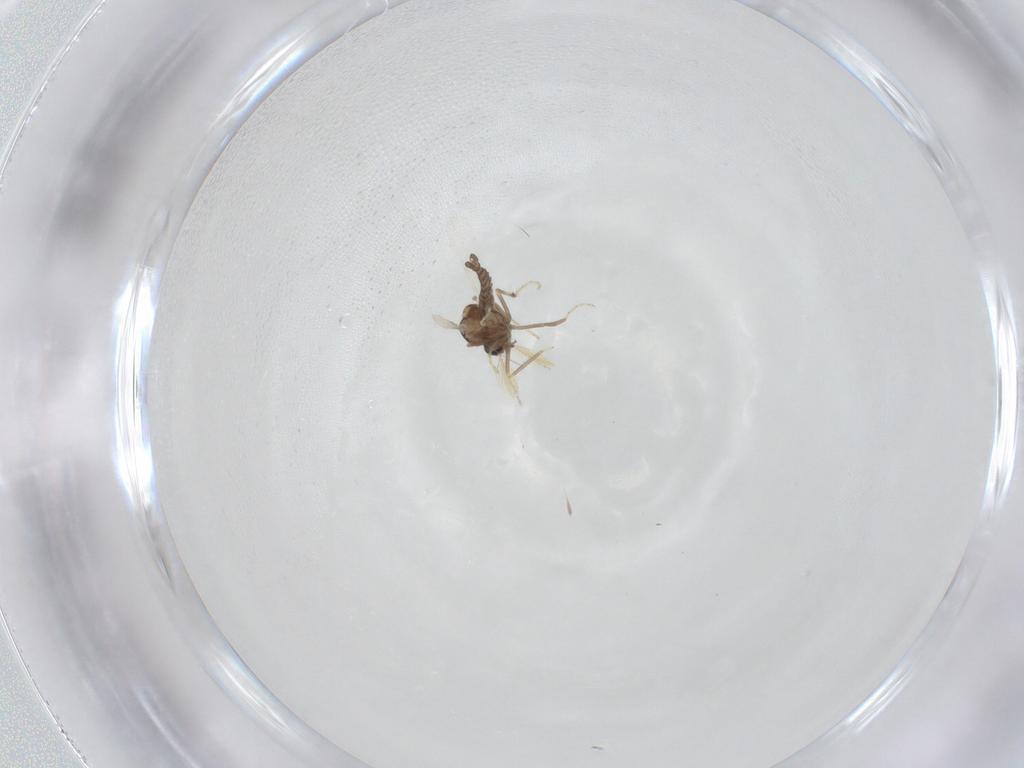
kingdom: Animalia
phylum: Arthropoda
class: Insecta
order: Diptera
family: Ceratopogonidae
